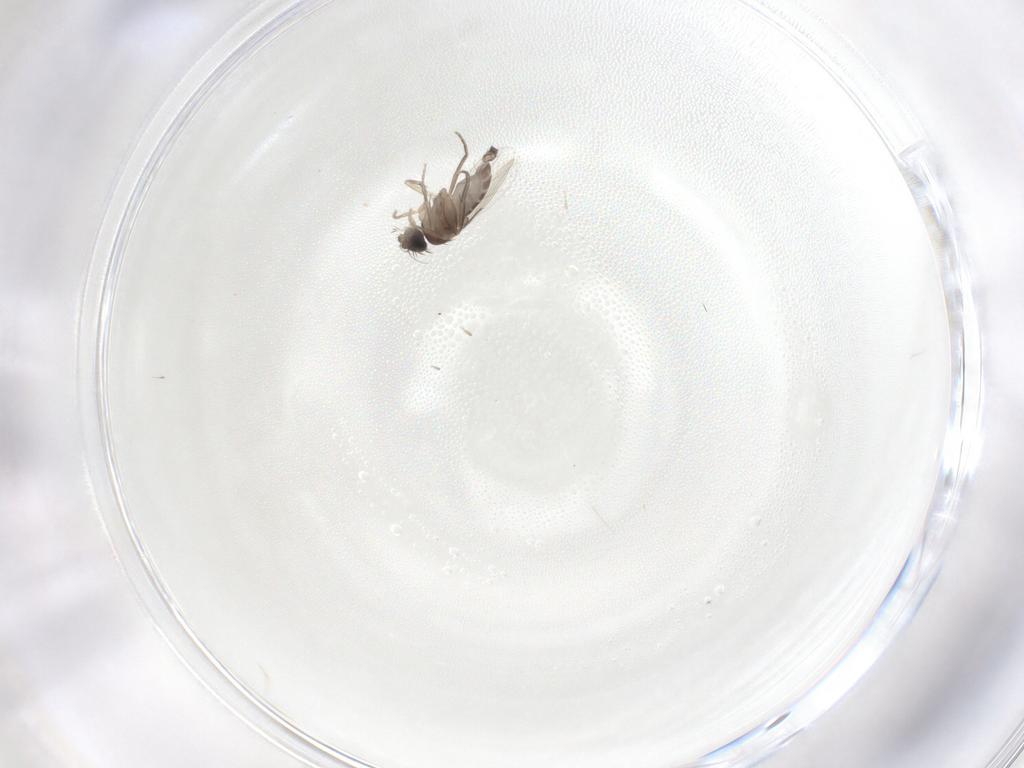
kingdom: Animalia
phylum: Arthropoda
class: Insecta
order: Diptera
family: Phoridae
